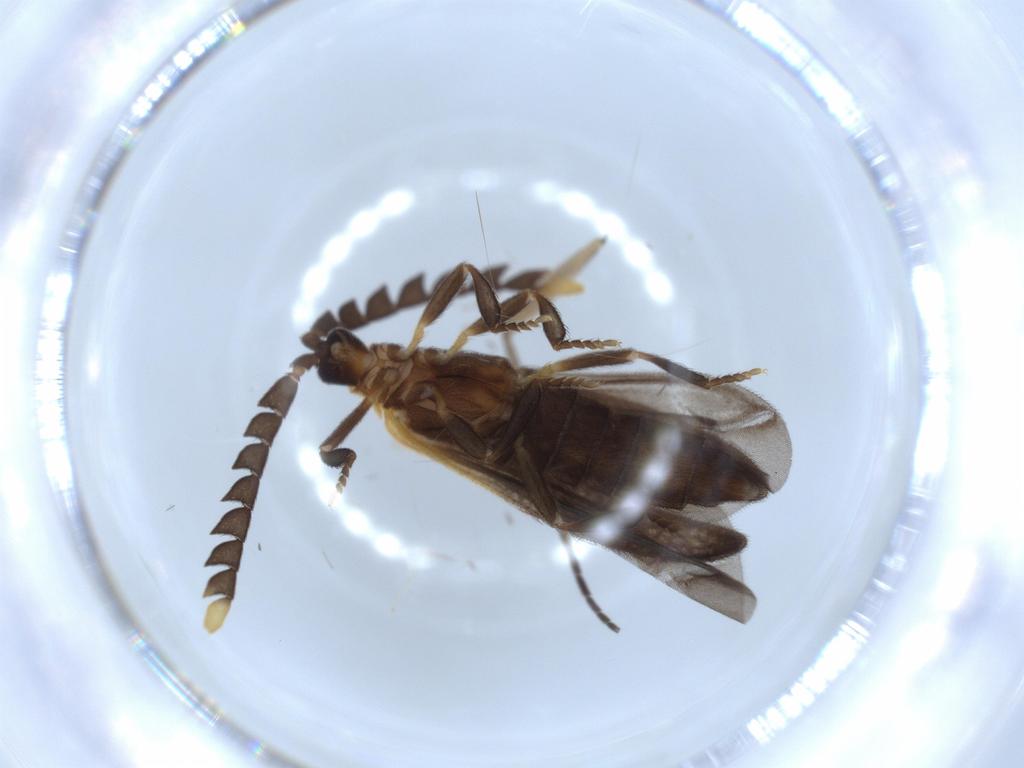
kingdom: Animalia
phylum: Arthropoda
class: Insecta
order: Coleoptera
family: Lycidae
